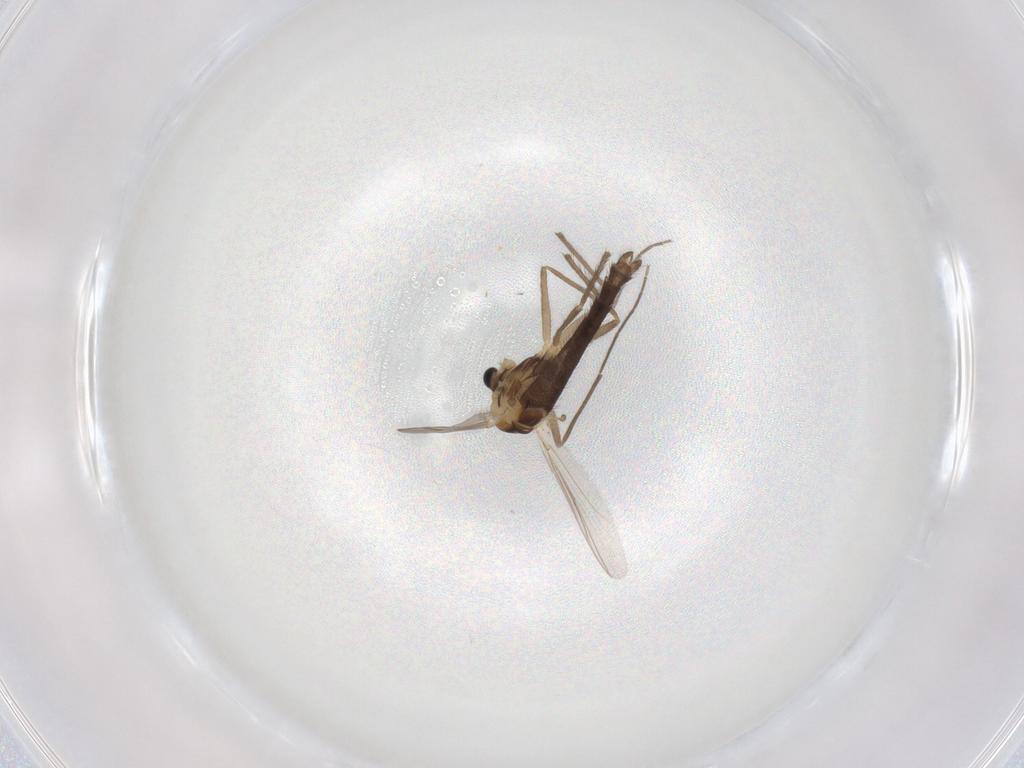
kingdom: Animalia
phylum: Arthropoda
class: Insecta
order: Diptera
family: Chironomidae
